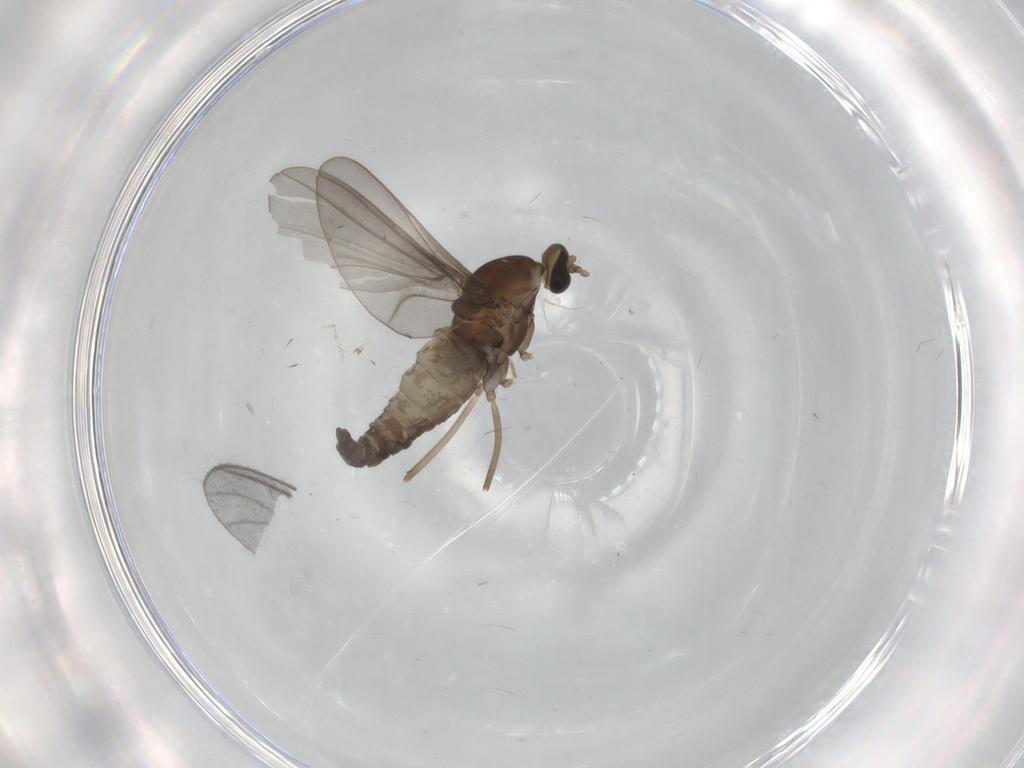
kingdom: Animalia
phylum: Arthropoda
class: Insecta
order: Diptera
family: Cecidomyiidae
